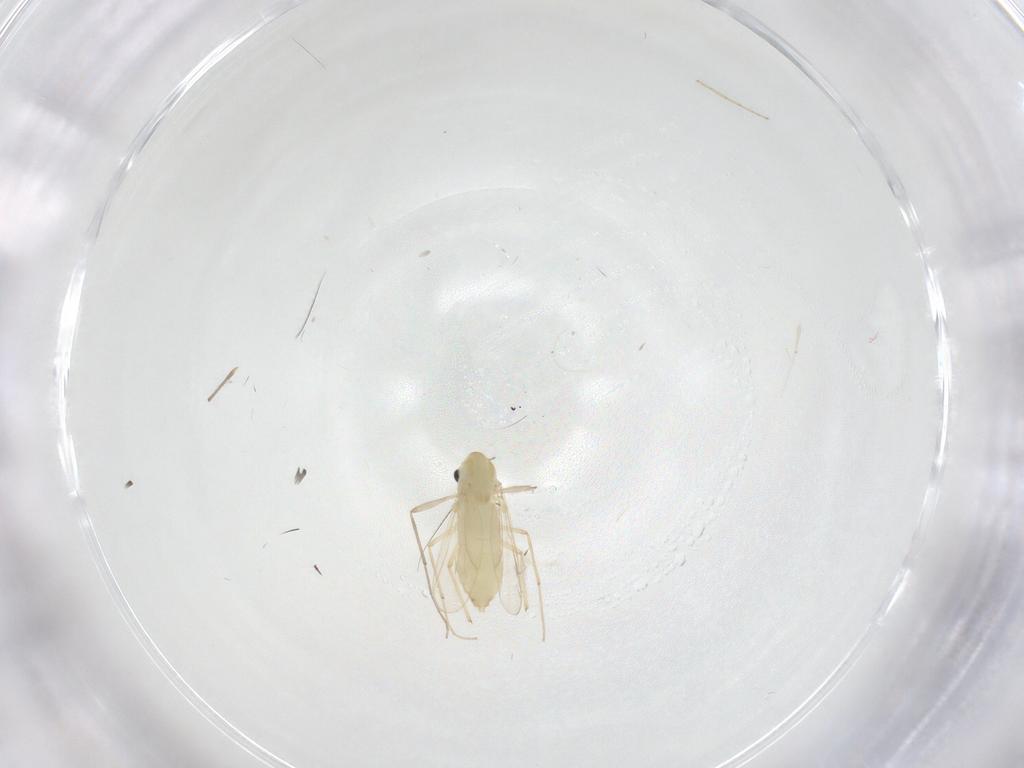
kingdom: Animalia
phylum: Arthropoda
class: Insecta
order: Diptera
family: Chironomidae
